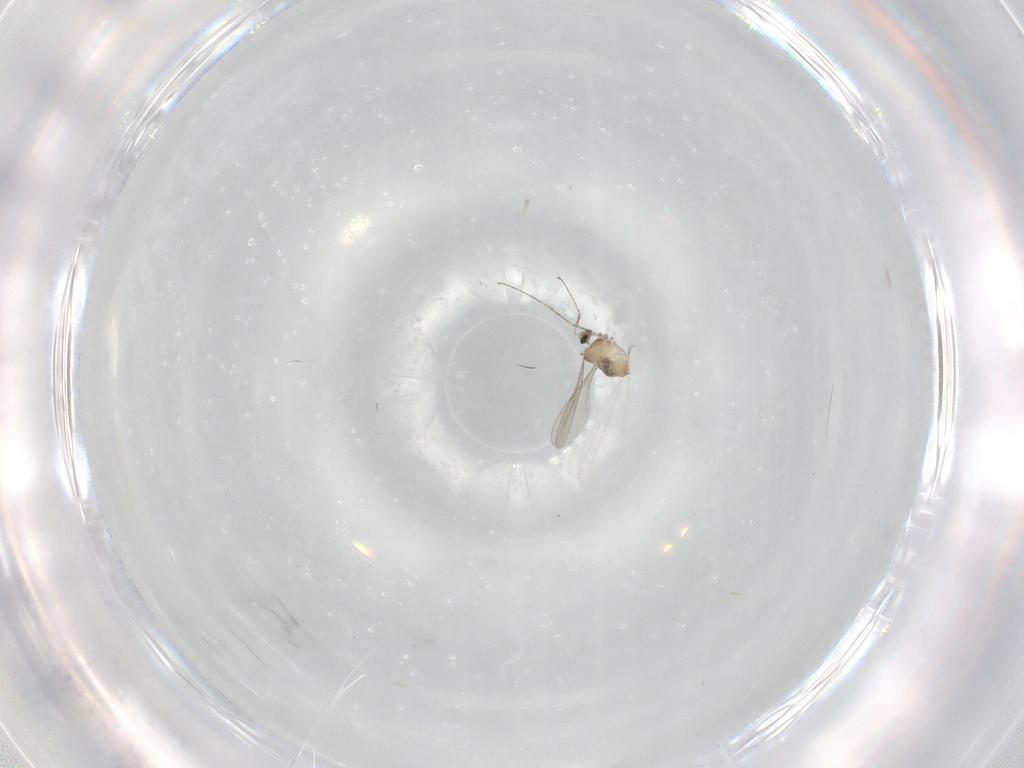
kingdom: Animalia
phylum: Arthropoda
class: Insecta
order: Diptera
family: Cecidomyiidae
